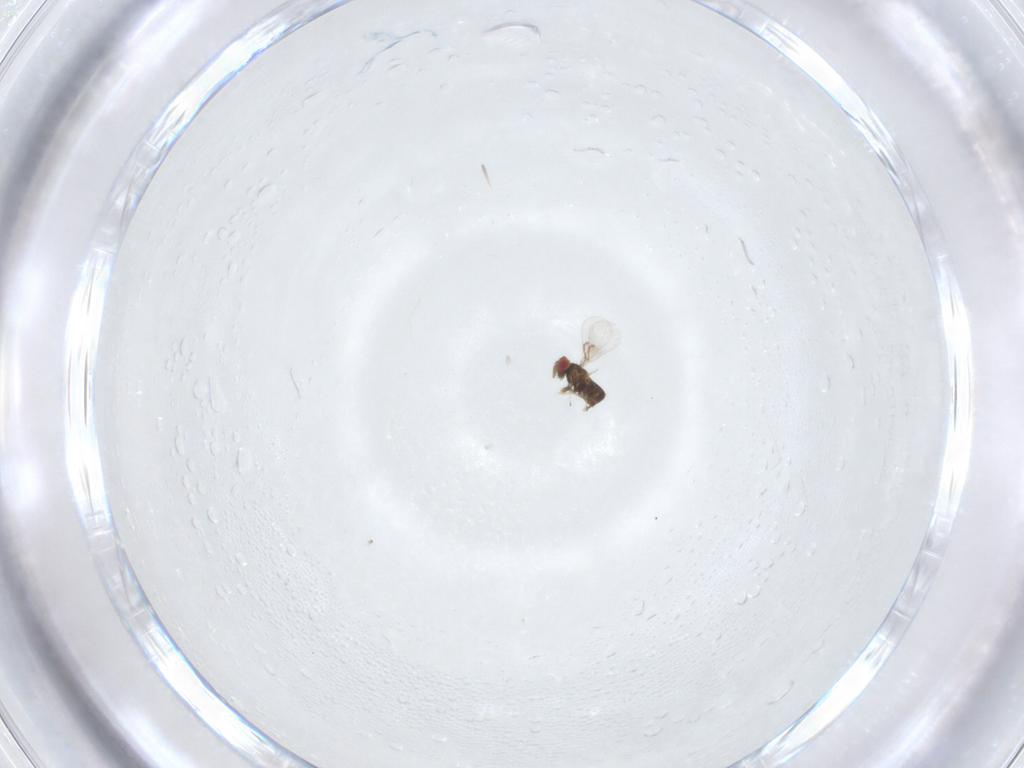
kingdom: Animalia
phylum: Arthropoda
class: Insecta
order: Hymenoptera
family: Trichogrammatidae
